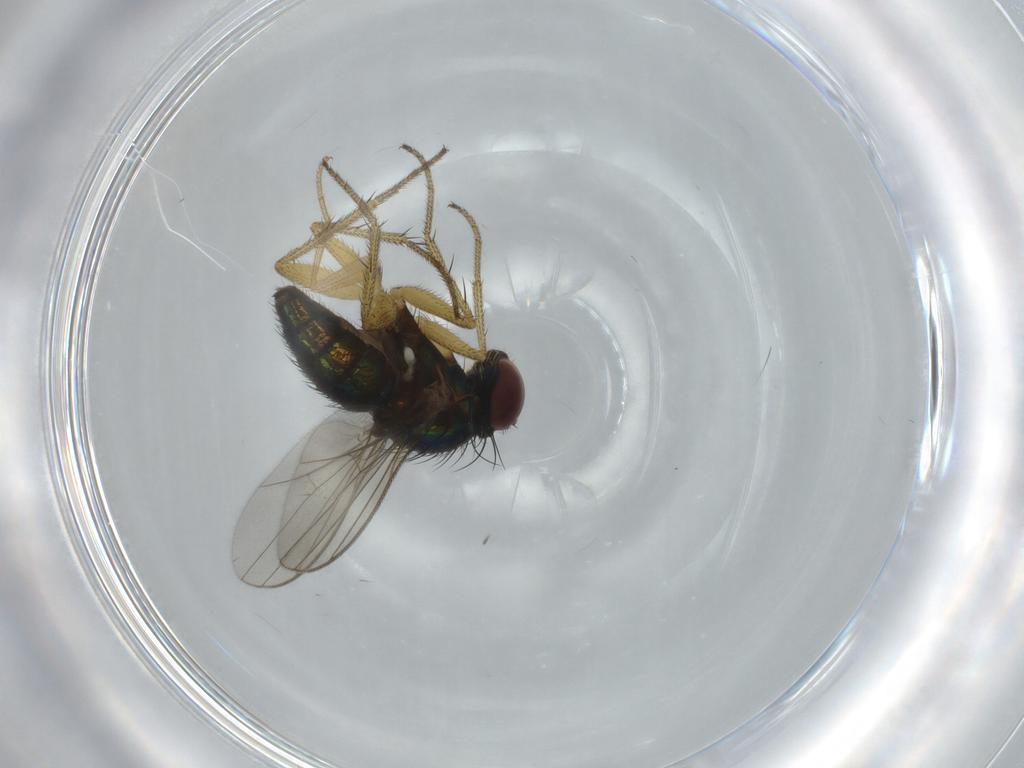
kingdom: Animalia
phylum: Arthropoda
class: Insecta
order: Diptera
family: Drosophilidae
